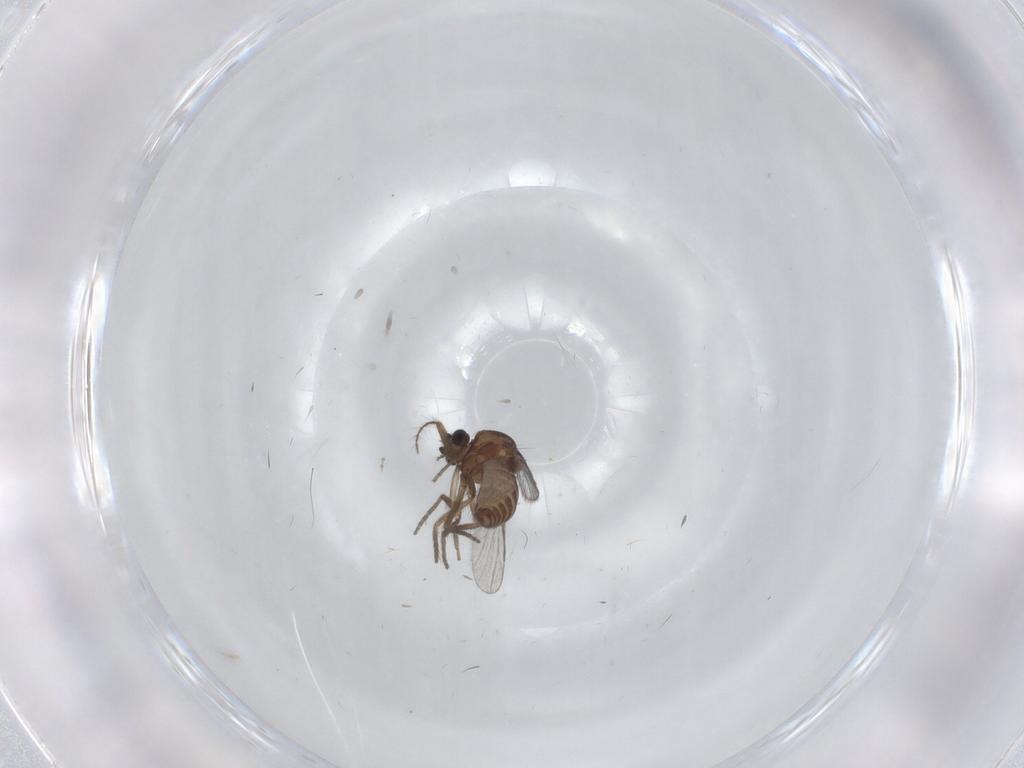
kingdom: Animalia
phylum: Arthropoda
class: Insecta
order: Diptera
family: Cecidomyiidae
